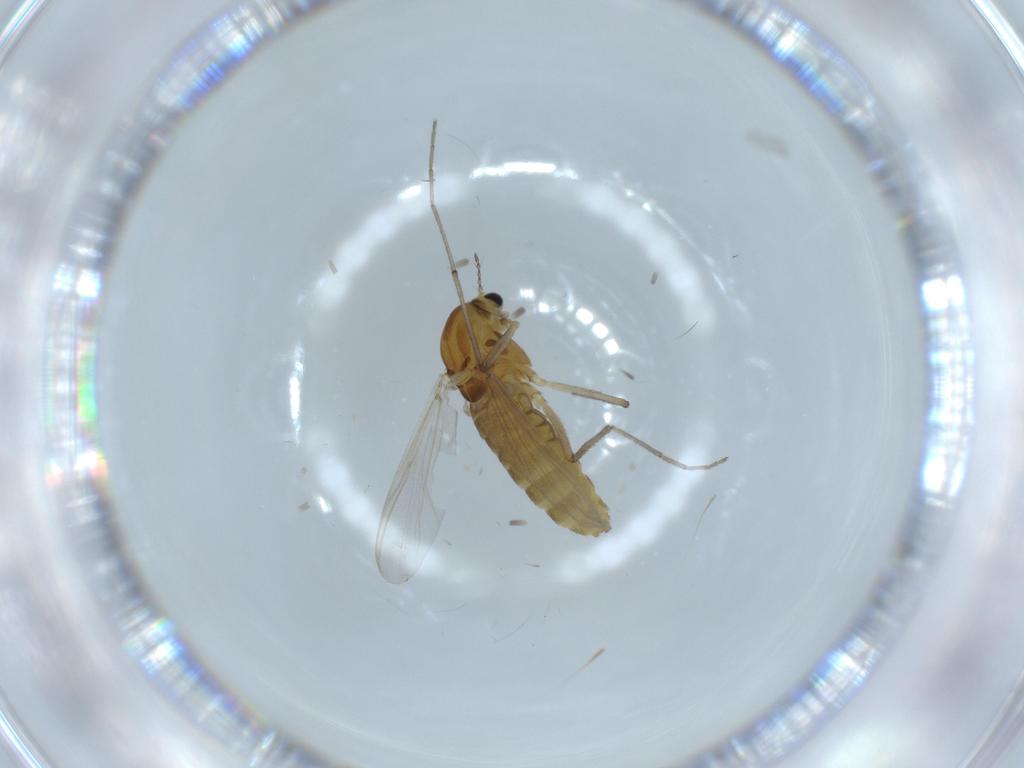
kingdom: Animalia
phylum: Arthropoda
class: Insecta
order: Diptera
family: Chironomidae
